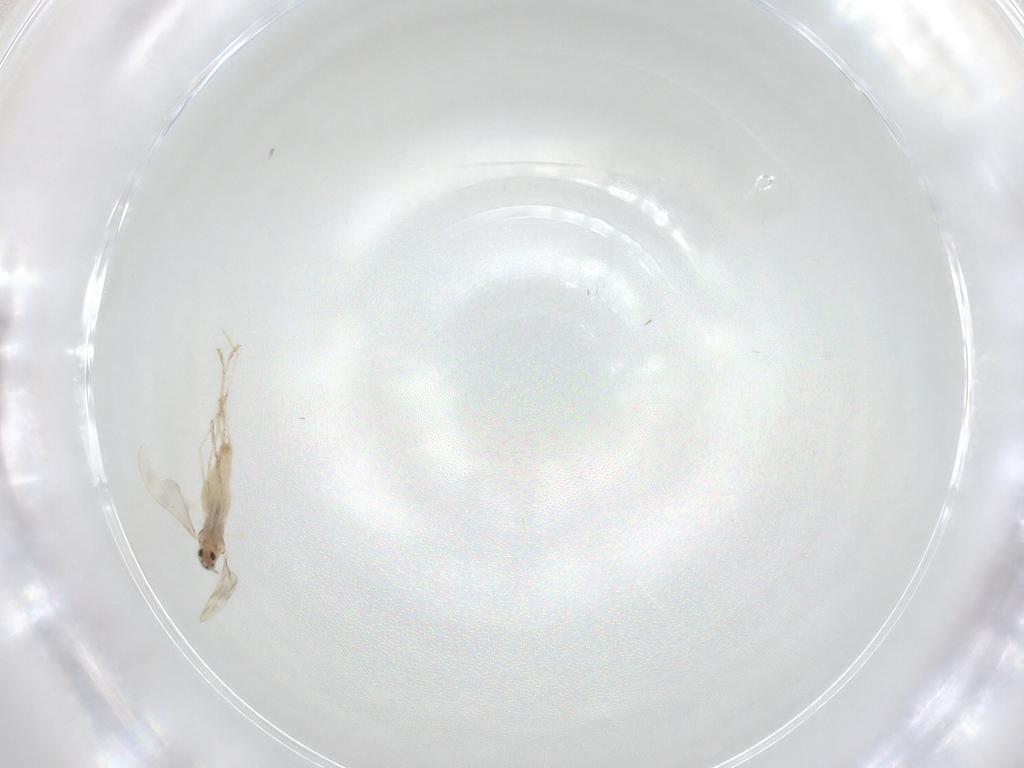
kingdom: Animalia
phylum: Arthropoda
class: Insecta
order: Diptera
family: Cecidomyiidae
